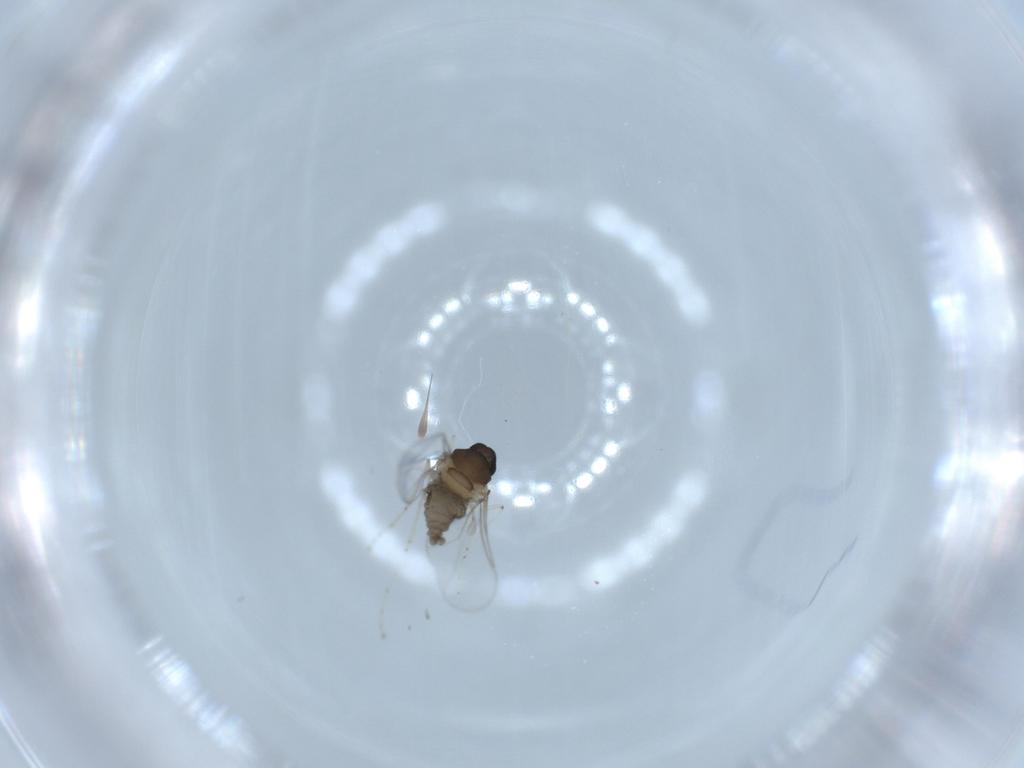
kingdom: Animalia
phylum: Arthropoda
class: Insecta
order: Diptera
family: Cecidomyiidae
